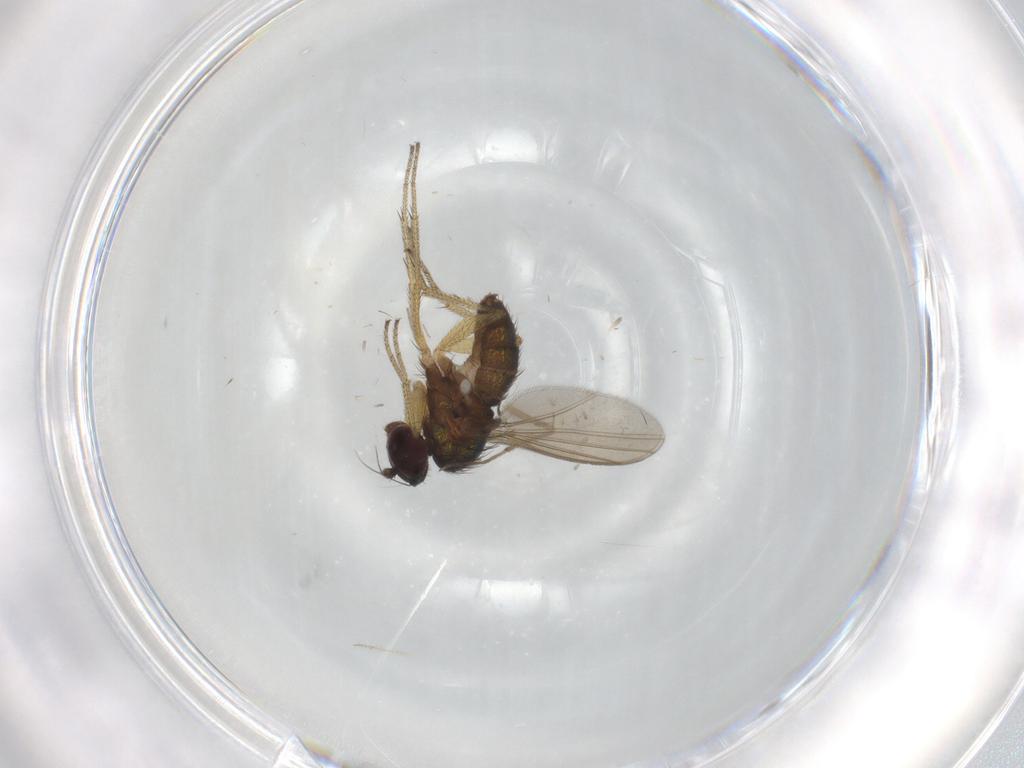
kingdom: Animalia
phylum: Arthropoda
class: Insecta
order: Diptera
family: Chironomidae
